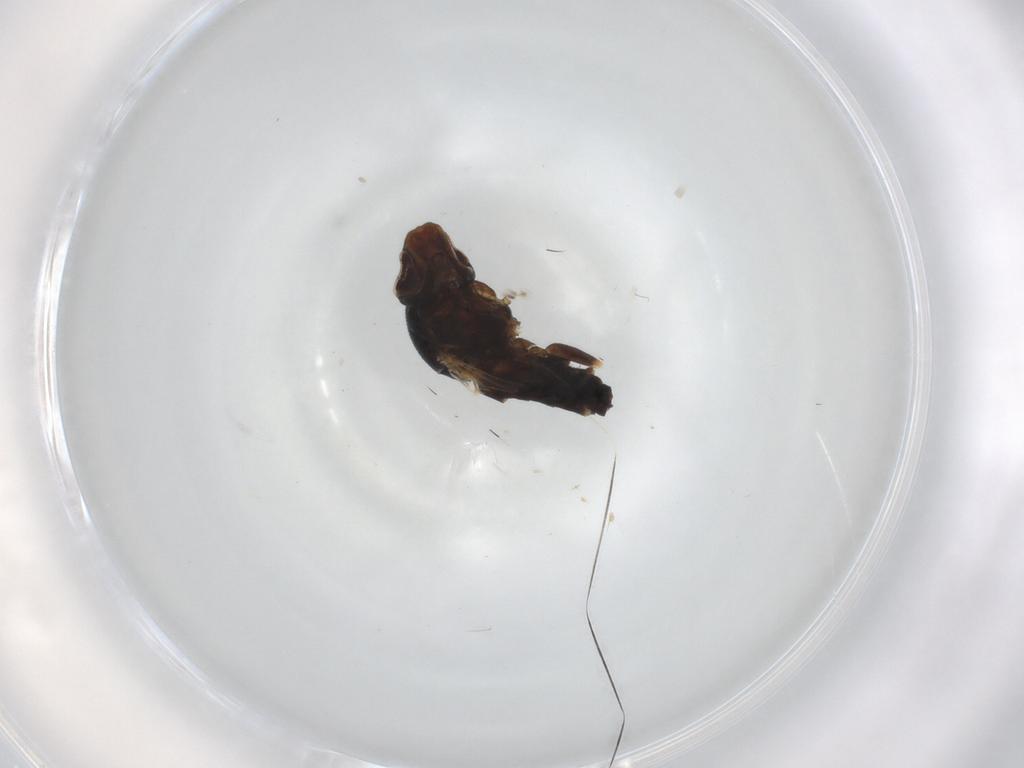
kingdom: Animalia
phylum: Arthropoda
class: Insecta
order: Diptera
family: Chloropidae
